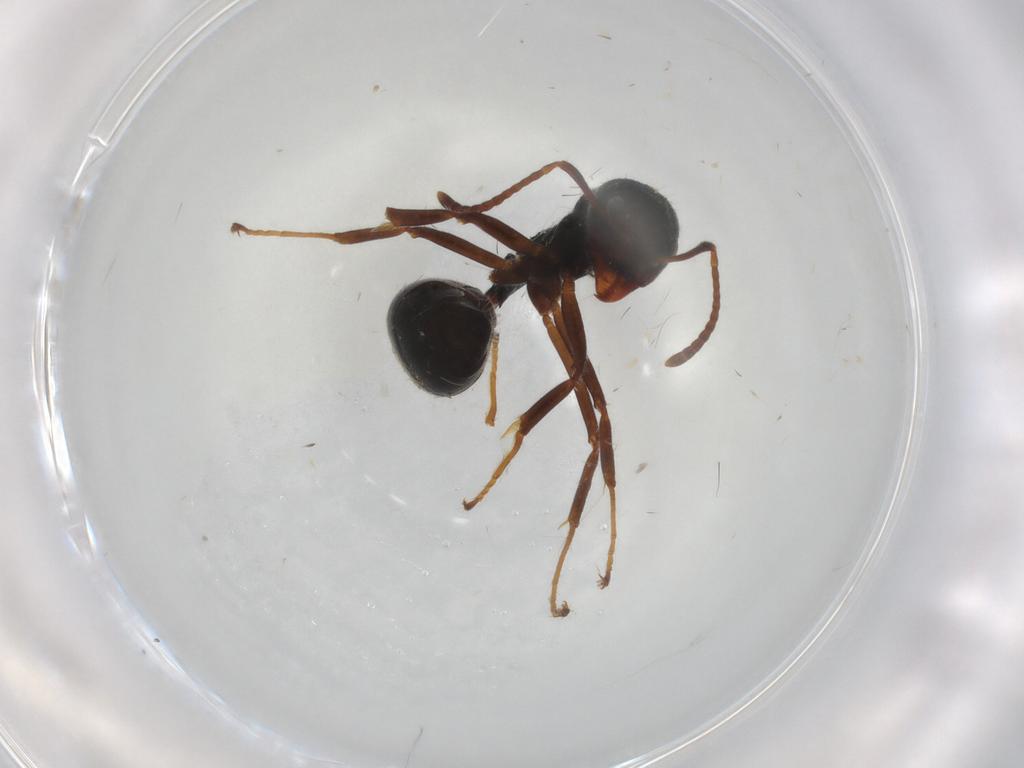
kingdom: Animalia
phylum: Arthropoda
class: Insecta
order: Hymenoptera
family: Formicidae
